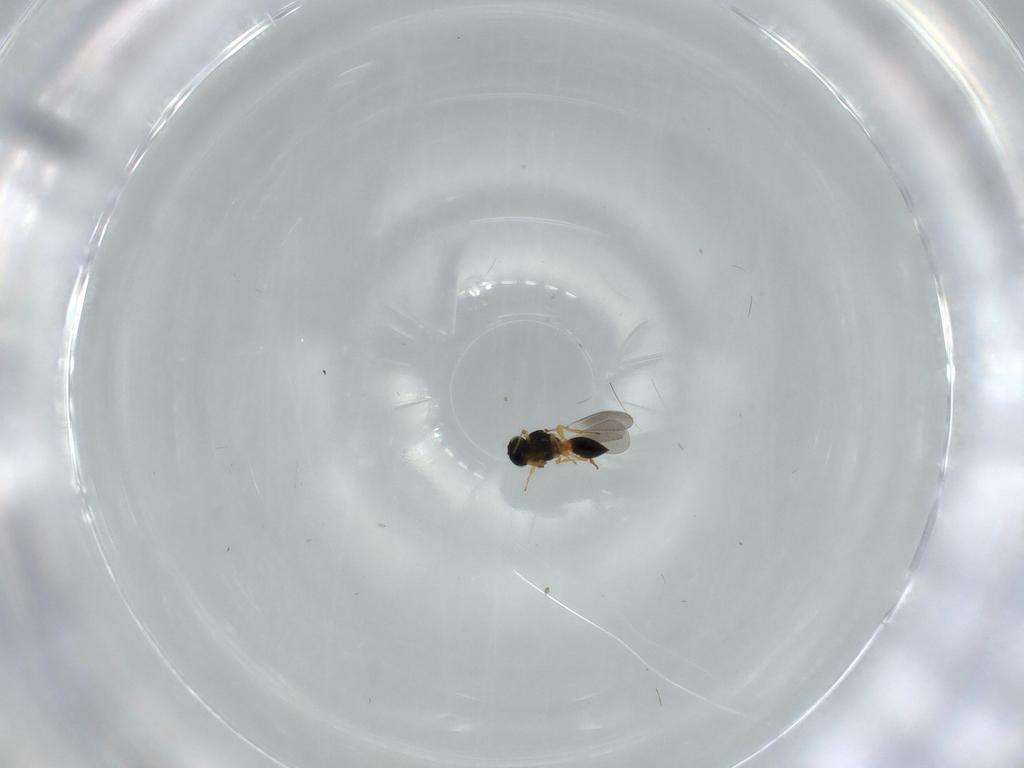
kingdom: Animalia
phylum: Arthropoda
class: Insecta
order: Hymenoptera
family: Platygastridae
